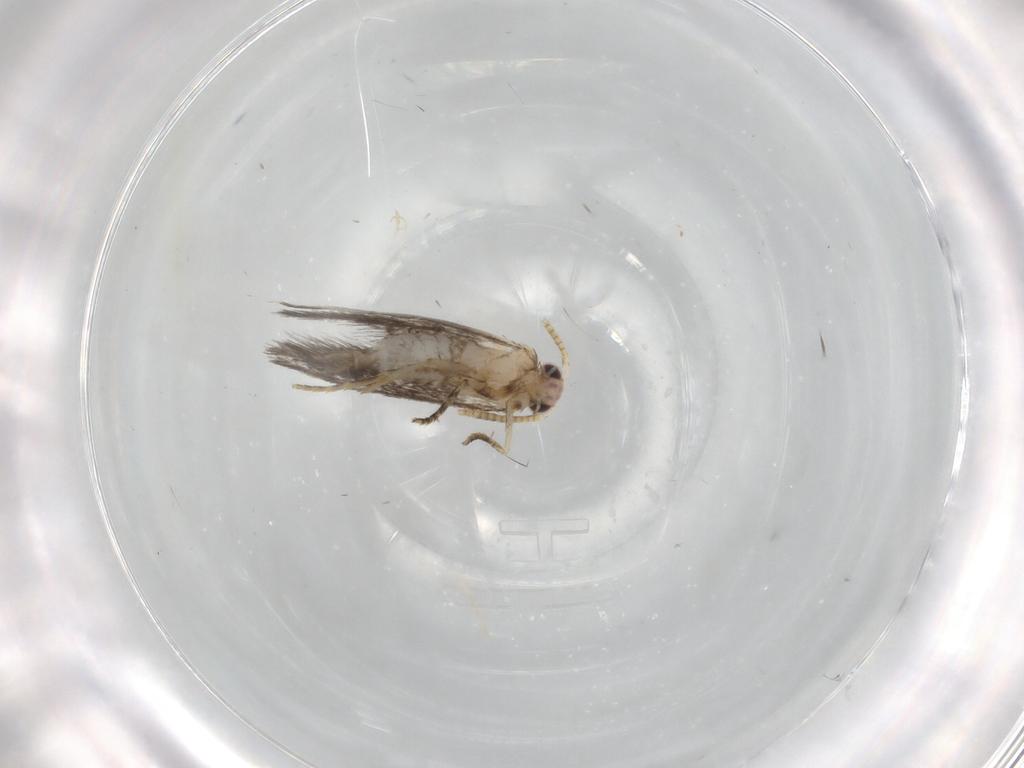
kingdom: Animalia
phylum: Arthropoda
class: Insecta
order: Lepidoptera
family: Tineidae
